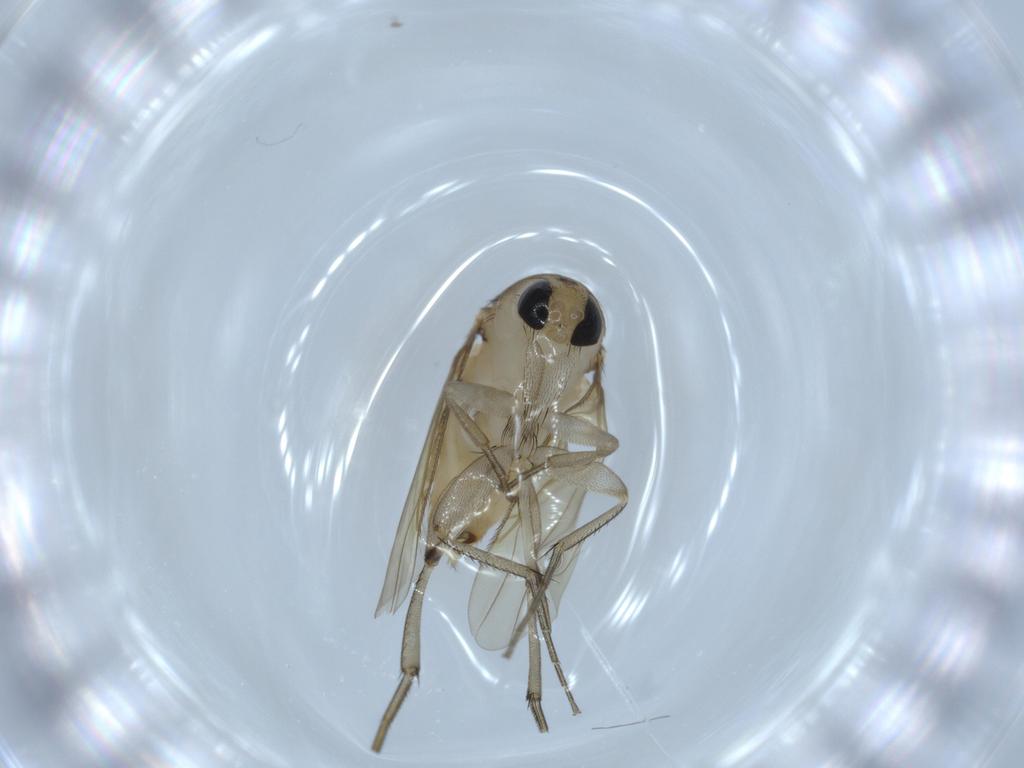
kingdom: Animalia
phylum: Arthropoda
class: Insecta
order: Diptera
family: Sciaridae
